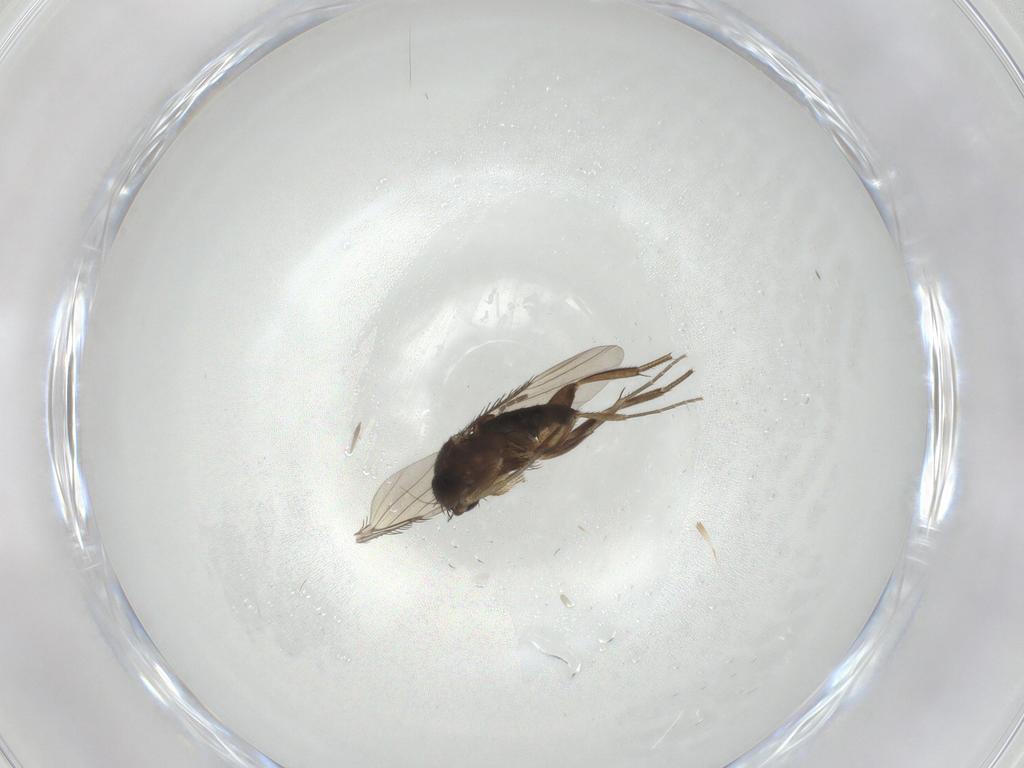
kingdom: Animalia
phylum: Arthropoda
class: Insecta
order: Diptera
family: Phoridae
